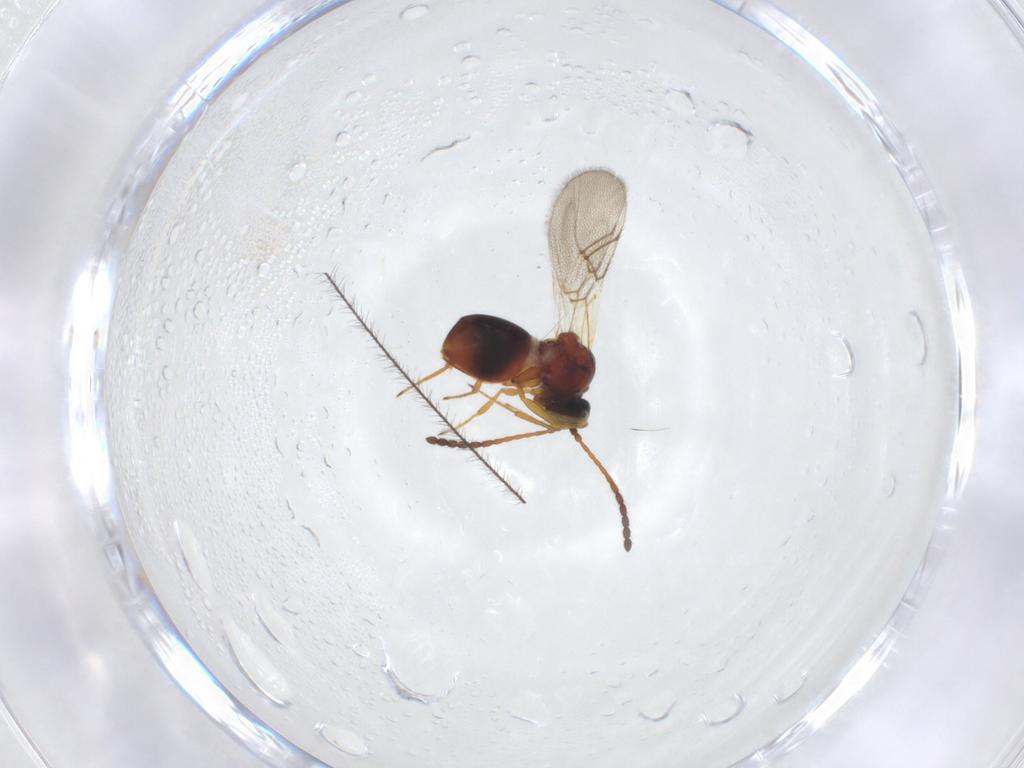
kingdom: Animalia
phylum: Arthropoda
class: Insecta
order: Hymenoptera
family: Figitidae
